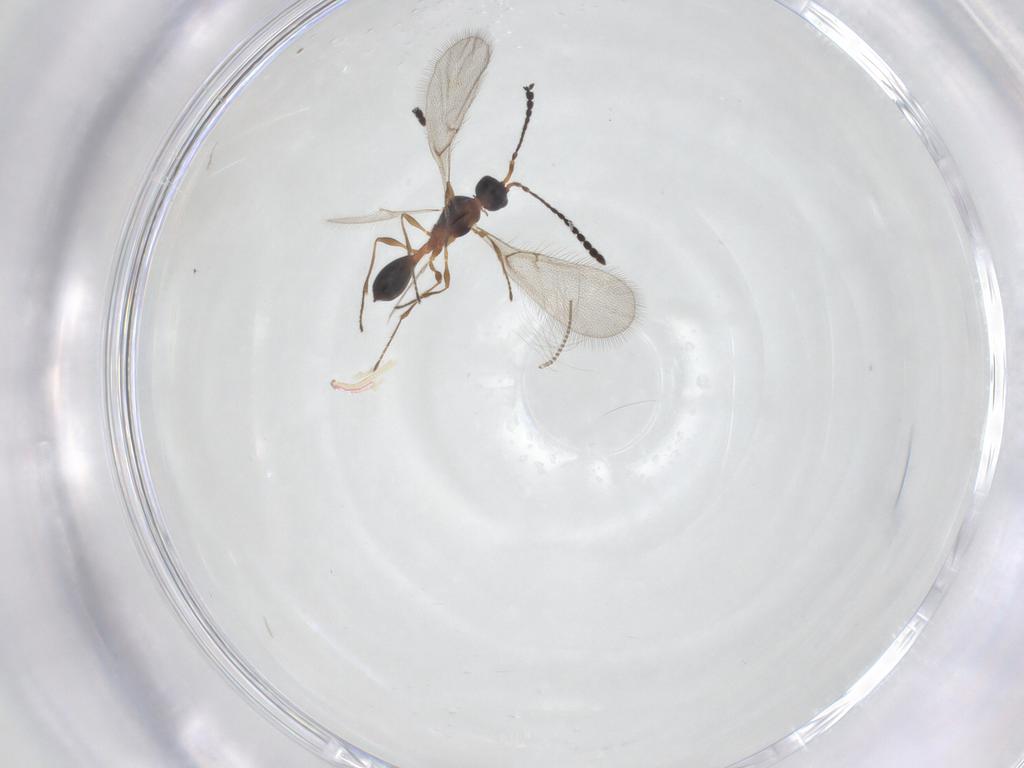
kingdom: Animalia
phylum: Arthropoda
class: Insecta
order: Hymenoptera
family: Diapriidae
